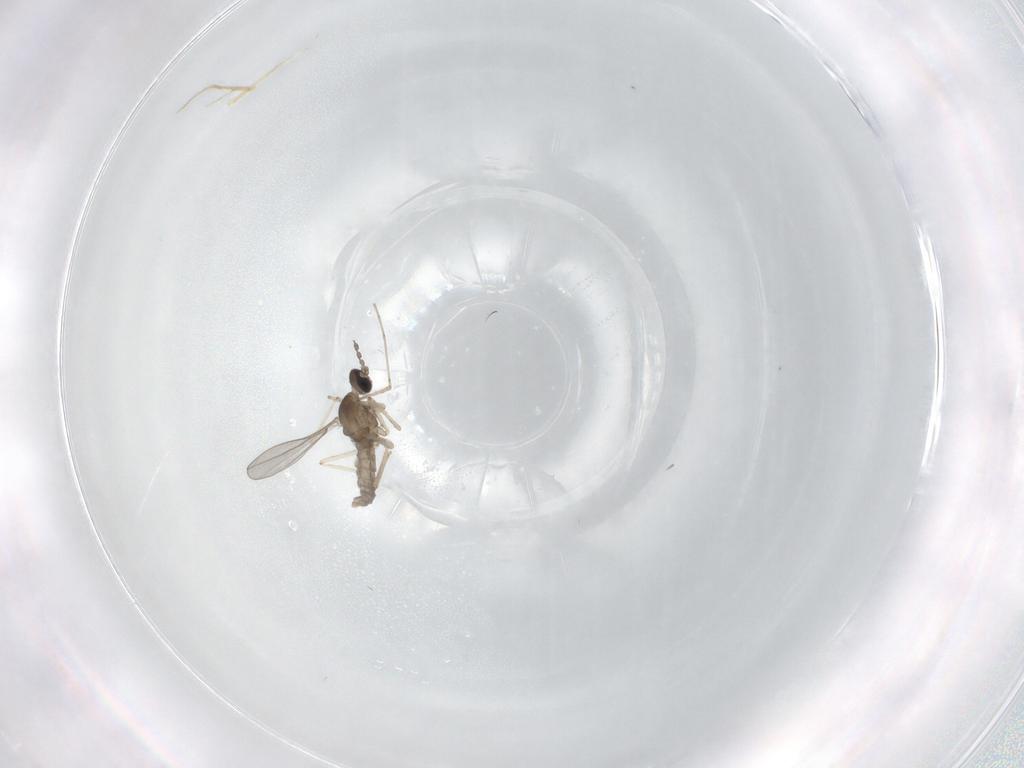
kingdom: Animalia
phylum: Arthropoda
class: Insecta
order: Diptera
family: Cecidomyiidae
